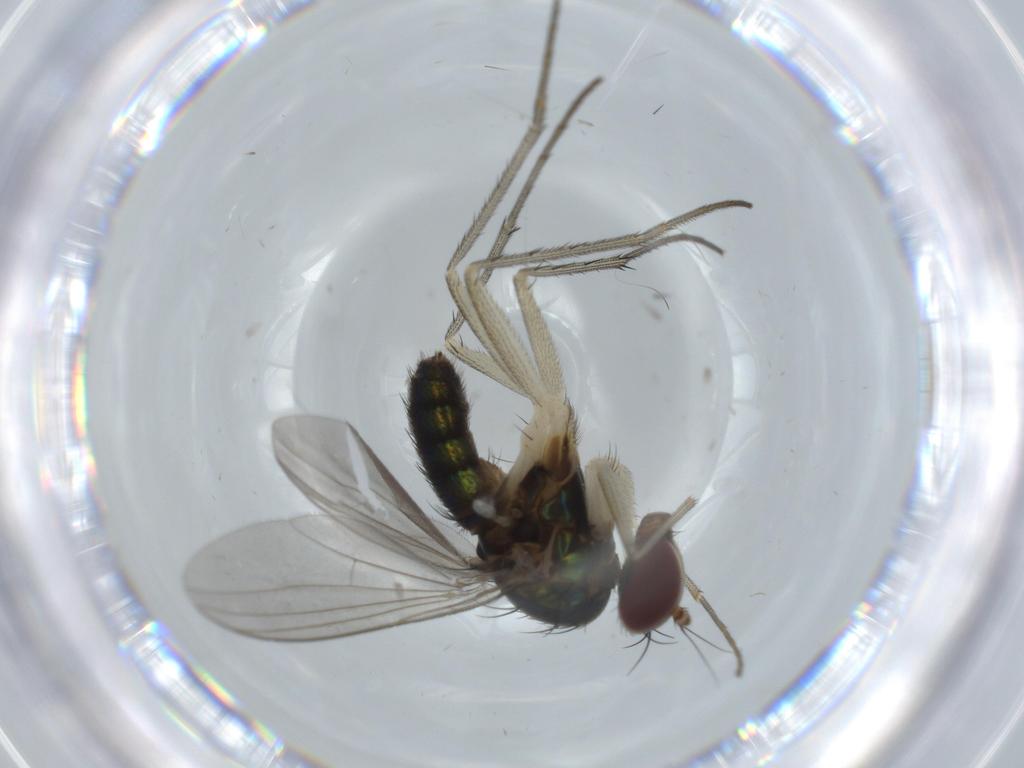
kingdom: Animalia
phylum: Arthropoda
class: Insecta
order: Diptera
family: Dolichopodidae
